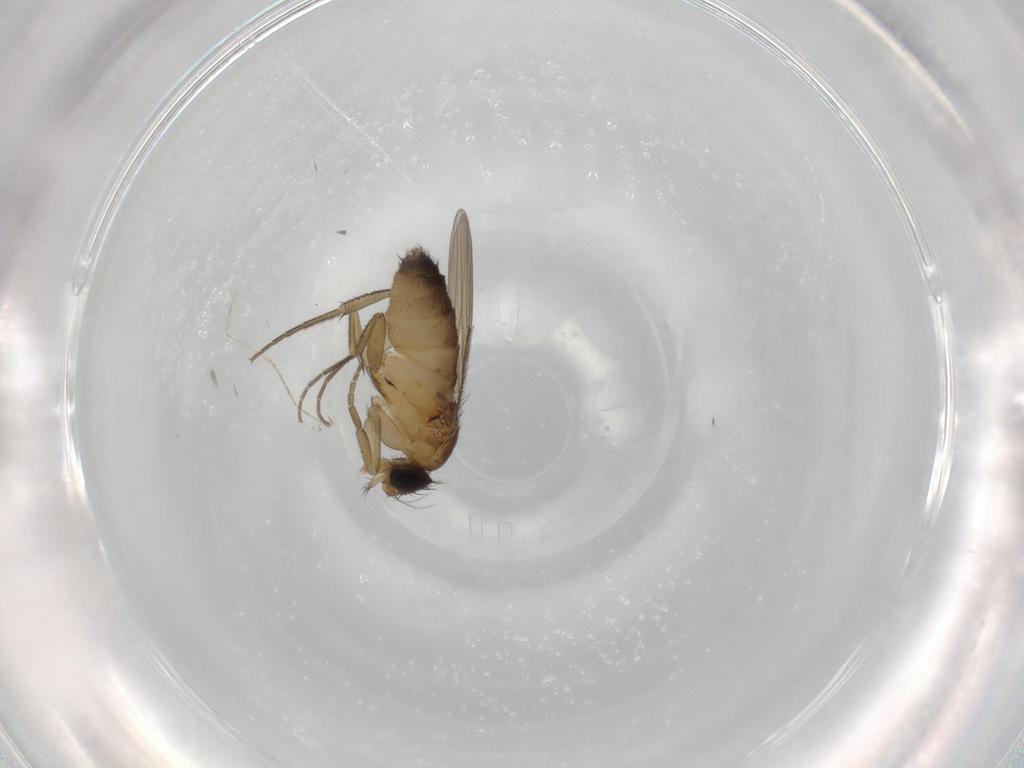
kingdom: Animalia
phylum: Arthropoda
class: Insecta
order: Diptera
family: Phoridae
